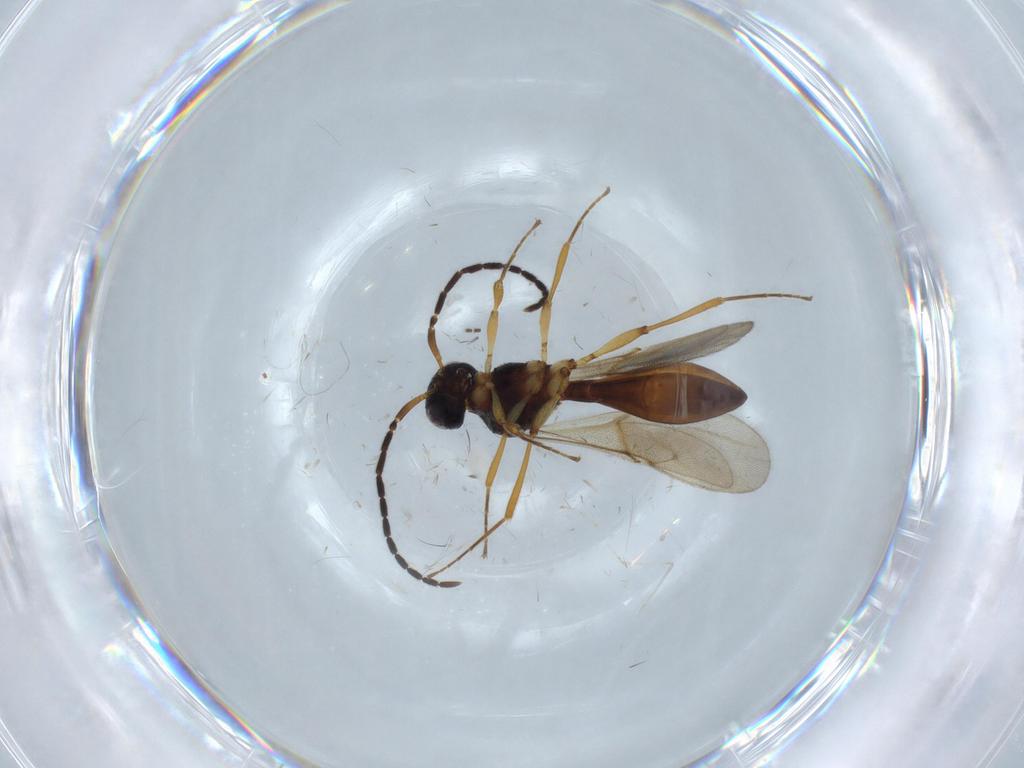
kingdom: Animalia
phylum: Arthropoda
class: Insecta
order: Hymenoptera
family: Scelionidae
